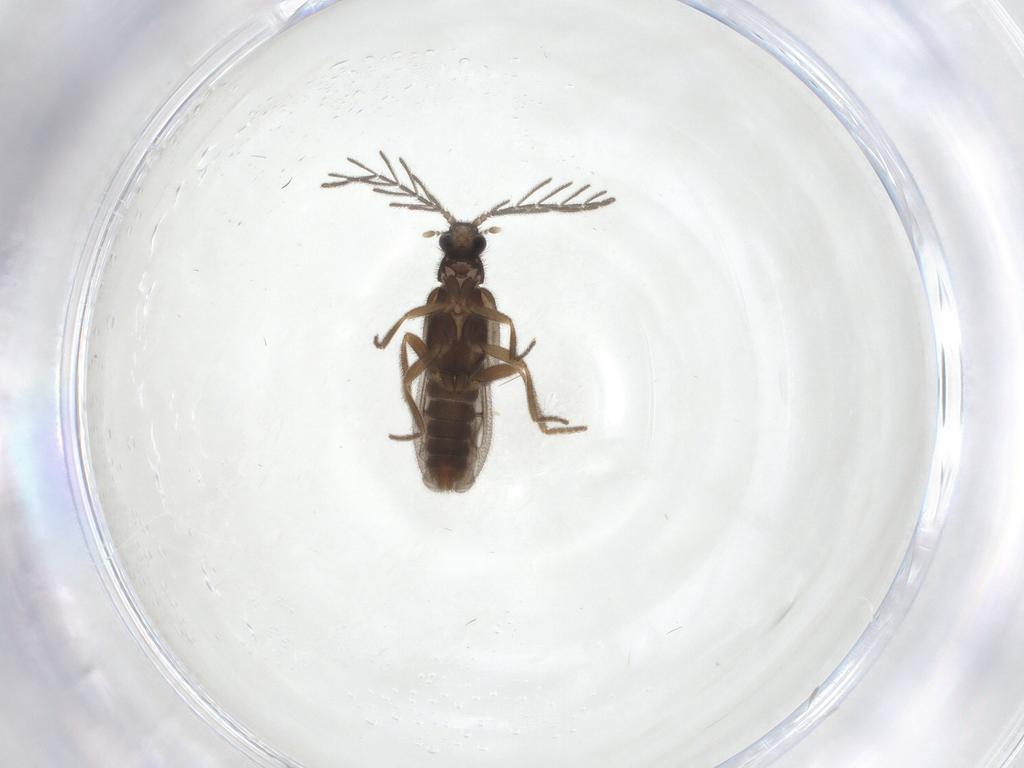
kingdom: Animalia
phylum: Arthropoda
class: Insecta
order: Coleoptera
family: Phengodidae
